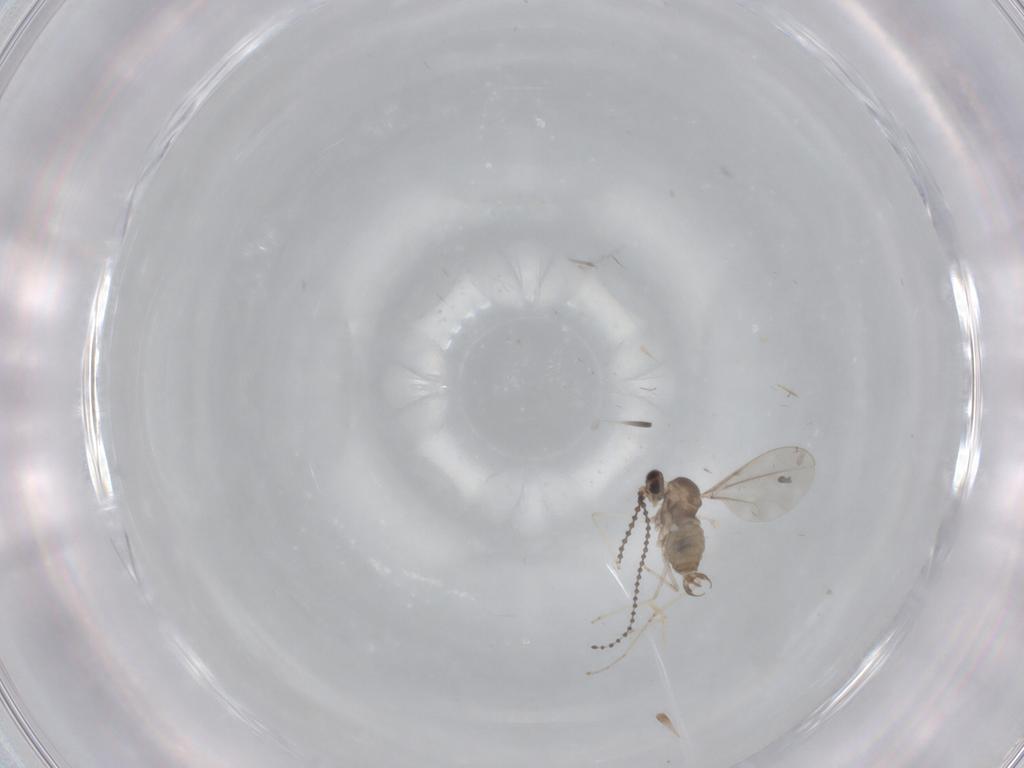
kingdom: Animalia
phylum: Arthropoda
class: Insecta
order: Diptera
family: Cecidomyiidae
